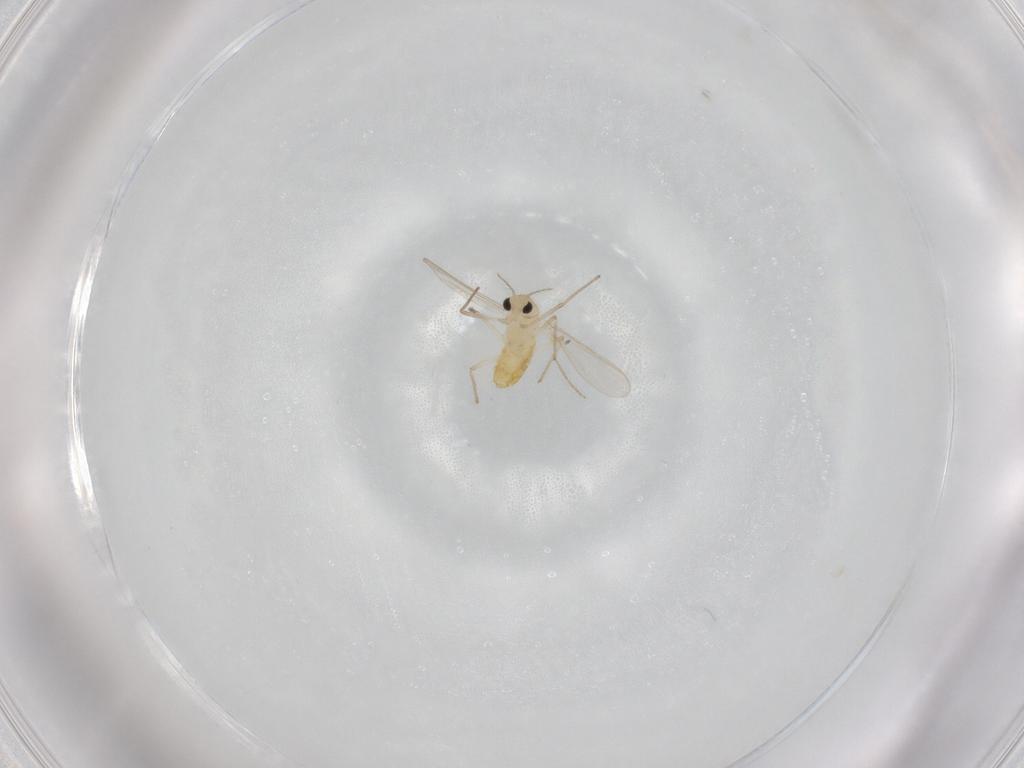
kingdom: Animalia
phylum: Arthropoda
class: Insecta
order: Diptera
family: Chironomidae
